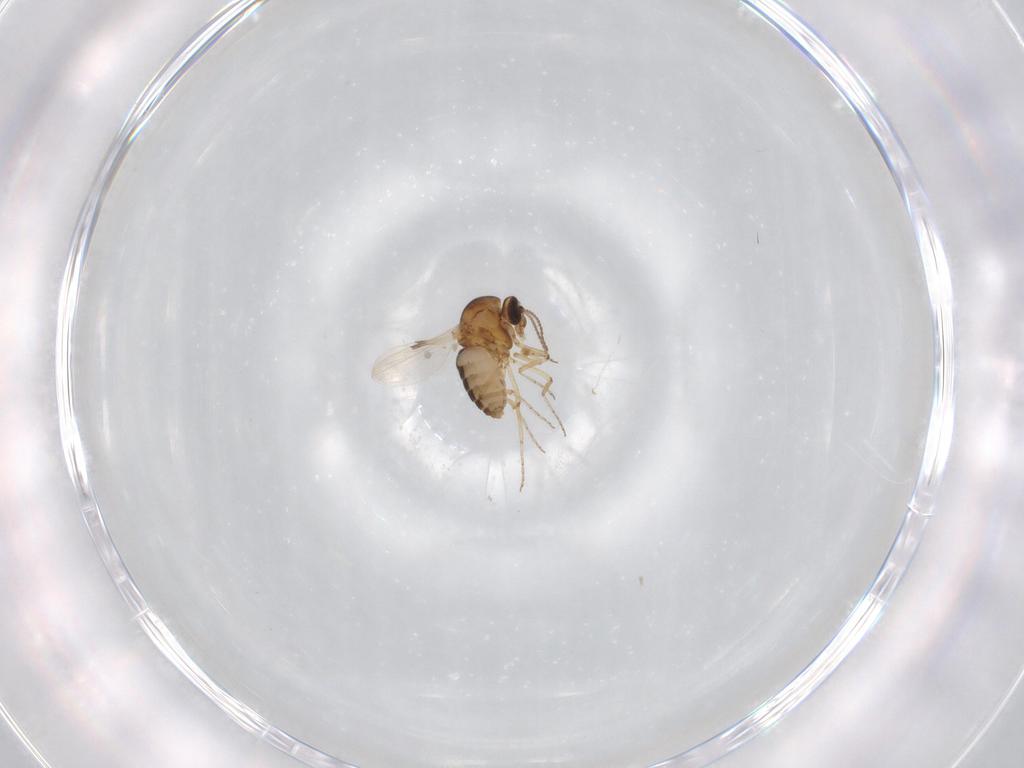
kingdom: Animalia
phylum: Arthropoda
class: Insecta
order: Diptera
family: Ceratopogonidae
